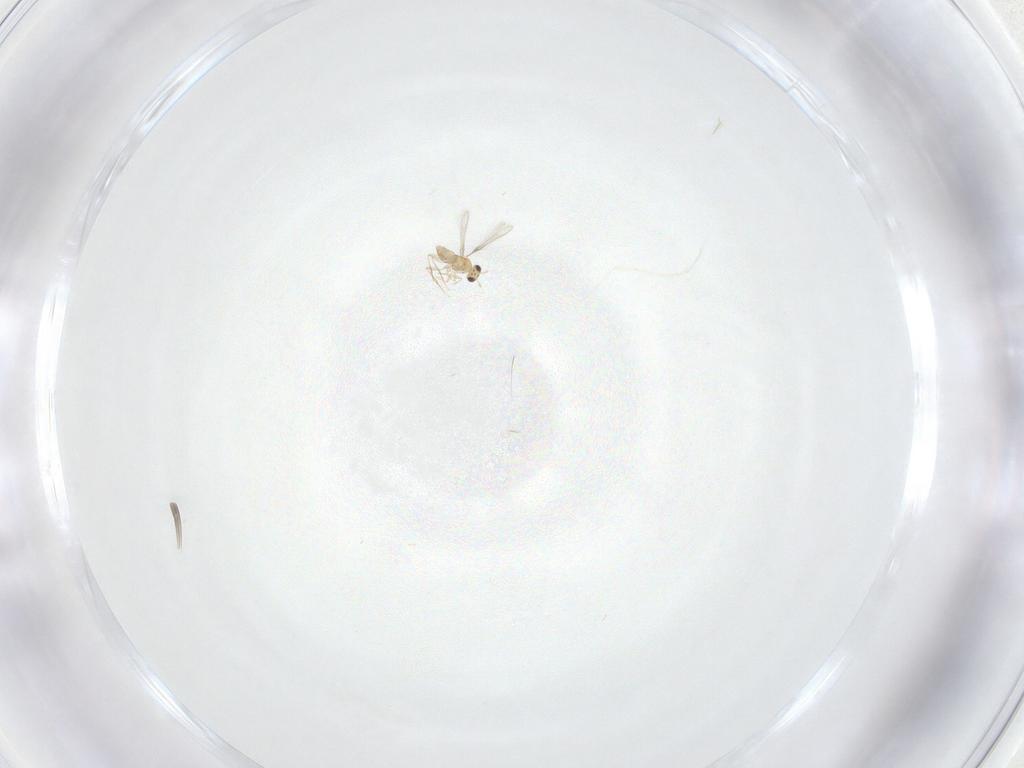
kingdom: Animalia
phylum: Arthropoda
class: Insecta
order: Hymenoptera
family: Mymaridae
